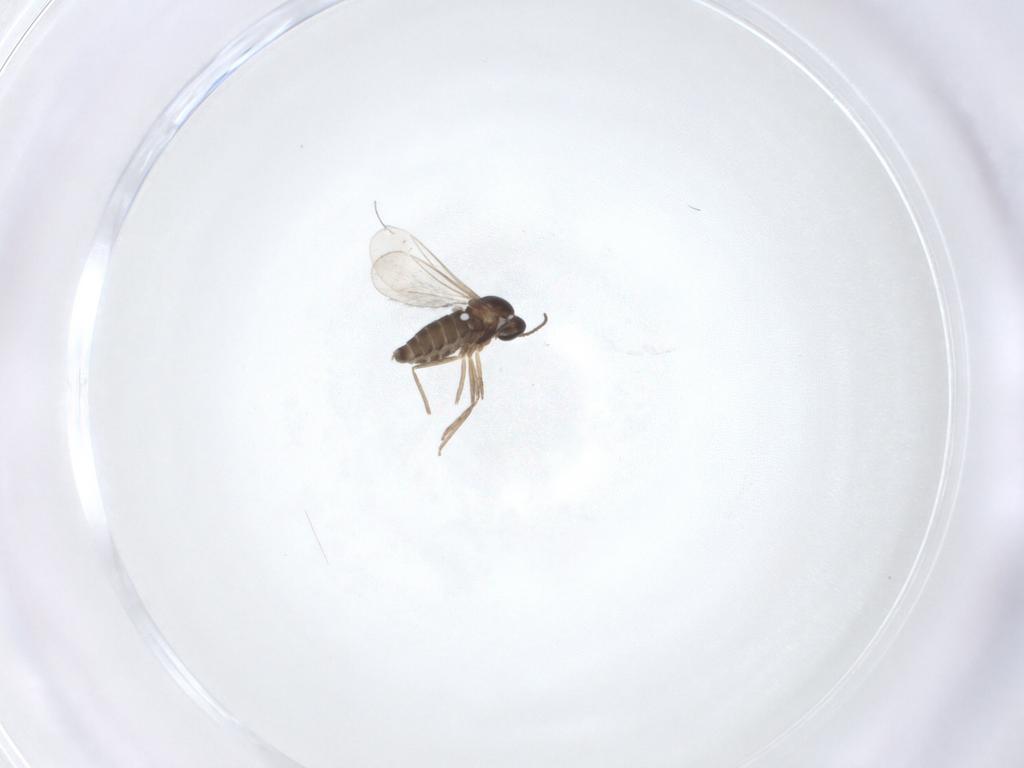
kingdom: Animalia
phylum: Arthropoda
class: Insecta
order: Diptera
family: Cecidomyiidae
